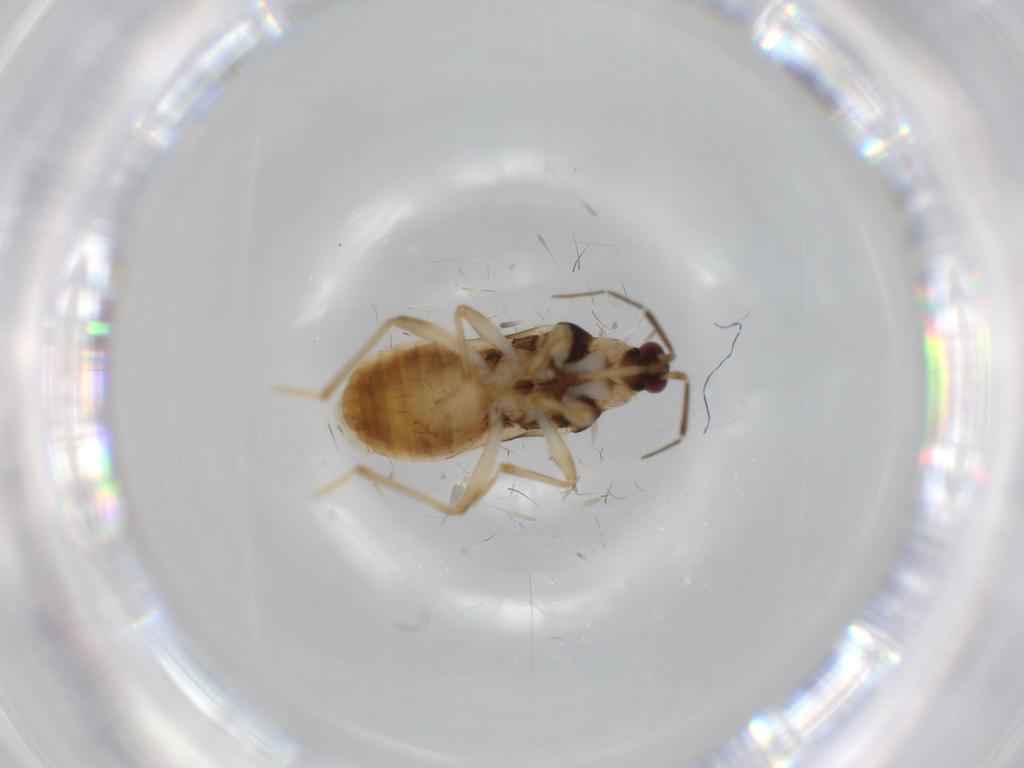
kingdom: Animalia
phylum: Arthropoda
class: Insecta
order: Hemiptera
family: Nabidae
